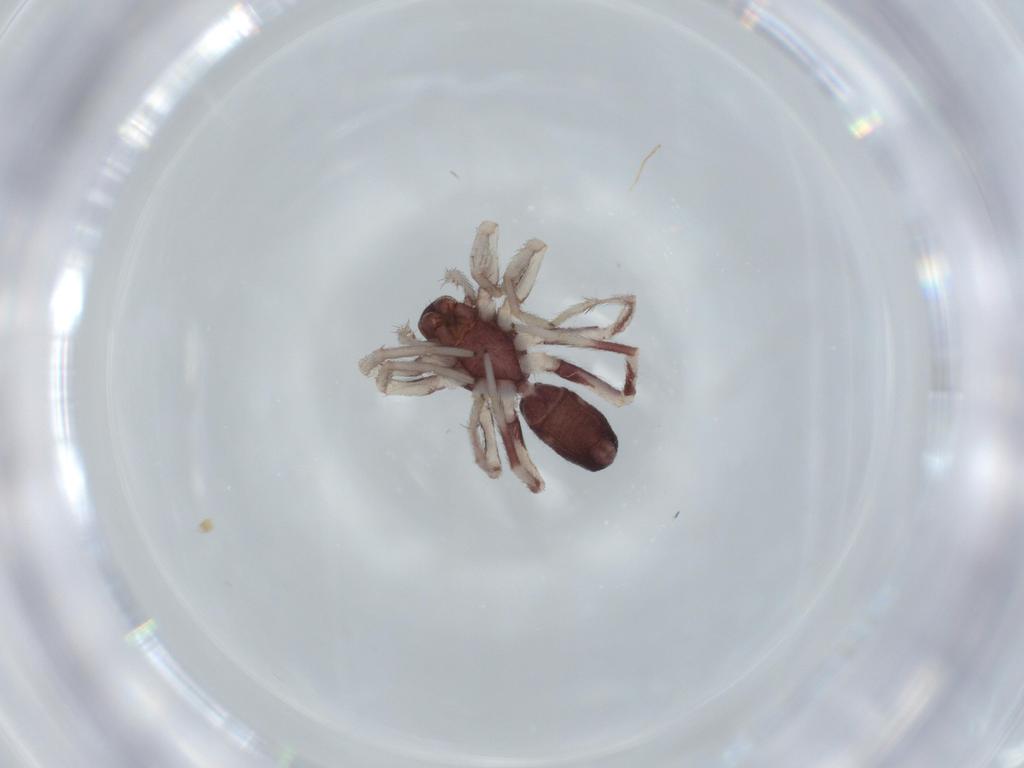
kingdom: Animalia
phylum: Arthropoda
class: Arachnida
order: Araneae
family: Corinnidae
